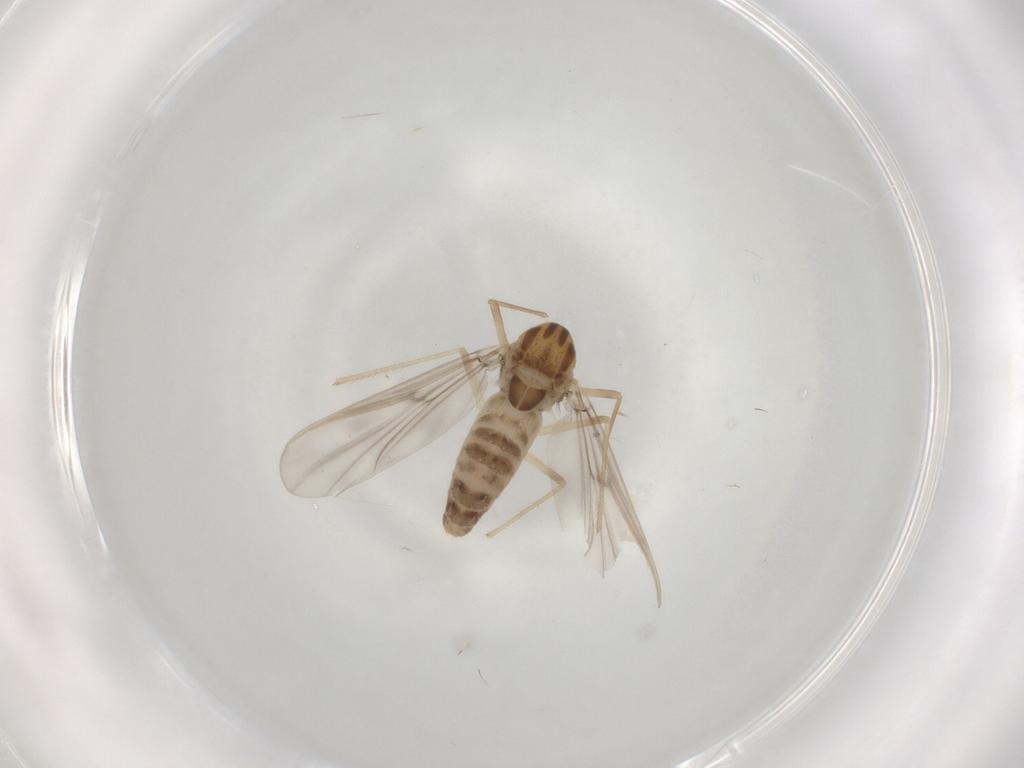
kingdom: Animalia
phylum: Arthropoda
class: Insecta
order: Diptera
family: Chironomidae
